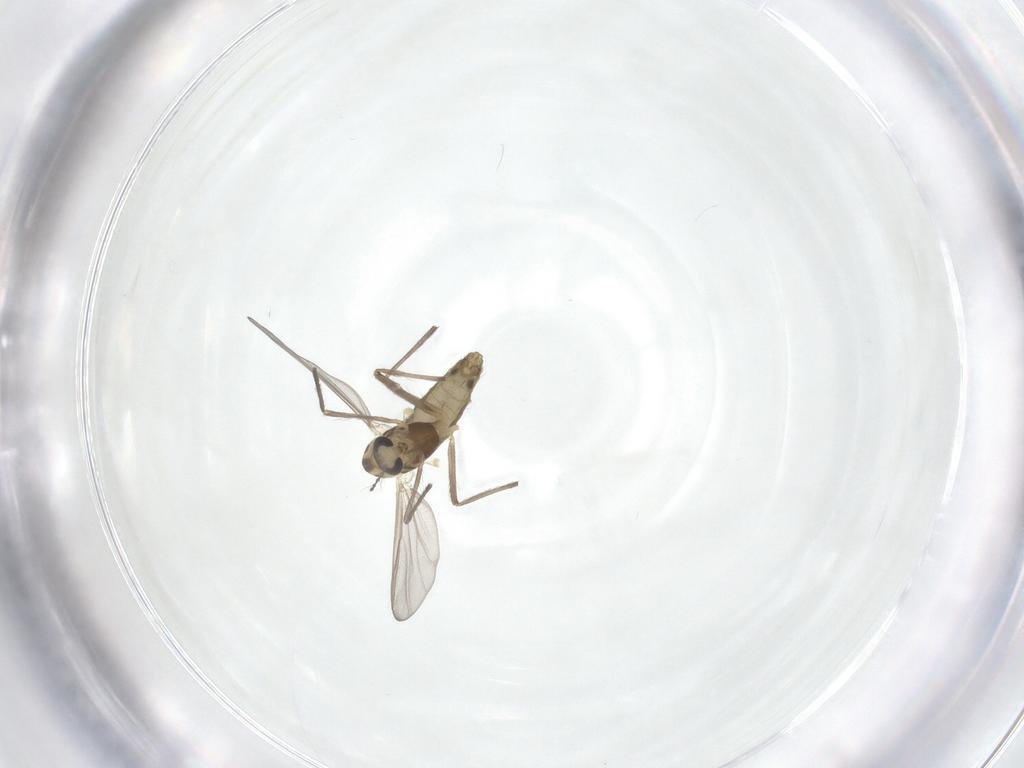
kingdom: Animalia
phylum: Arthropoda
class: Insecta
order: Diptera
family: Chironomidae
